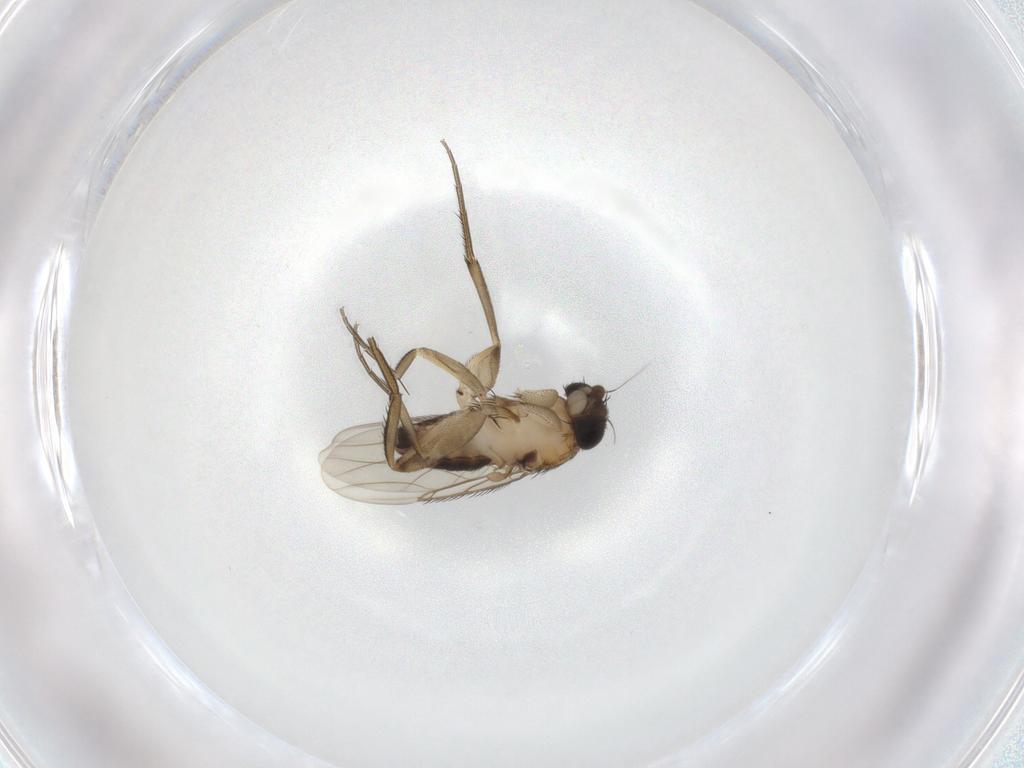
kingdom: Animalia
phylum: Arthropoda
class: Insecta
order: Diptera
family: Phoridae
